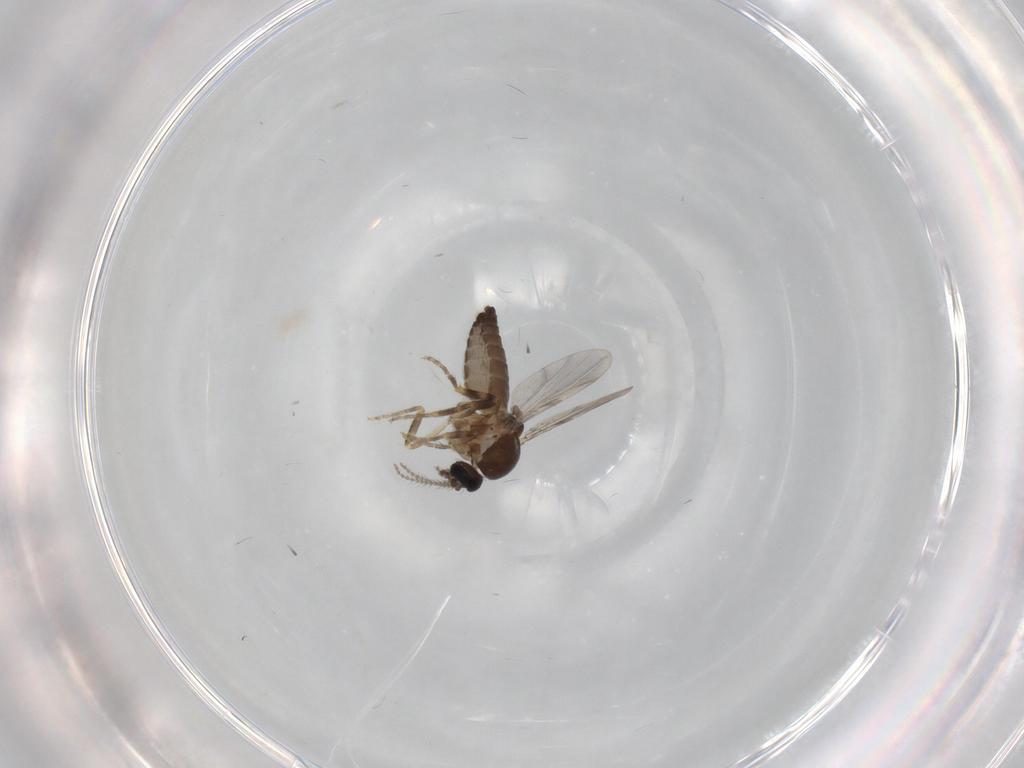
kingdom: Animalia
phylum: Arthropoda
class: Insecta
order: Diptera
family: Ceratopogonidae
